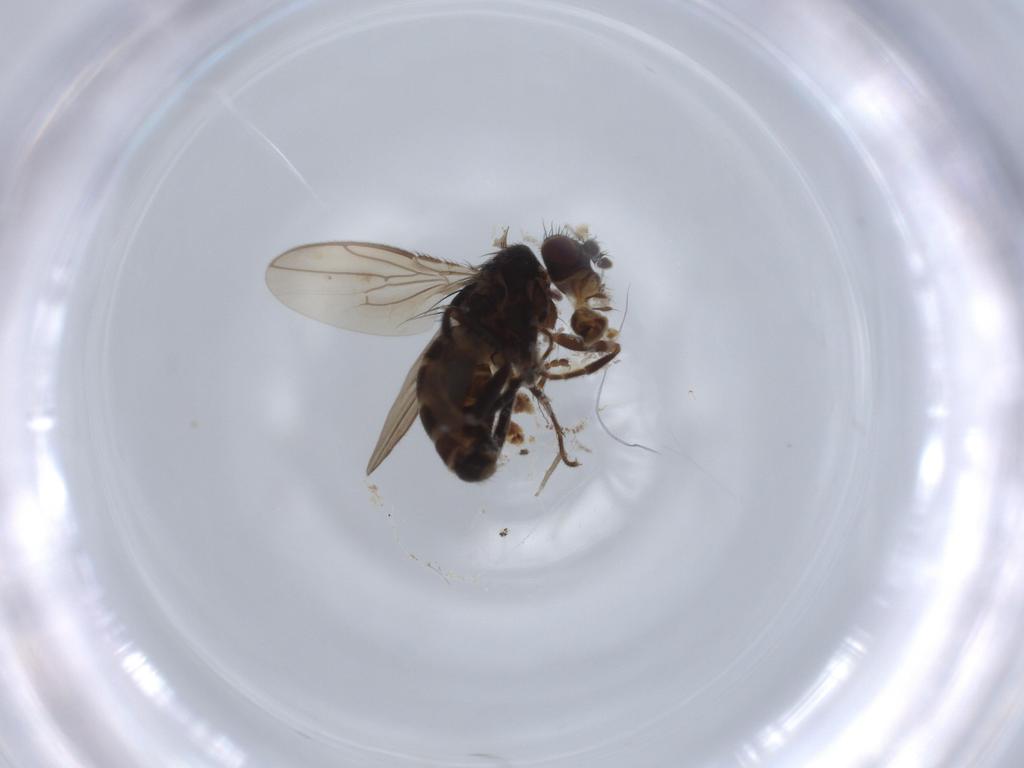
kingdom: Animalia
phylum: Arthropoda
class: Insecta
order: Diptera
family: Sphaeroceridae
